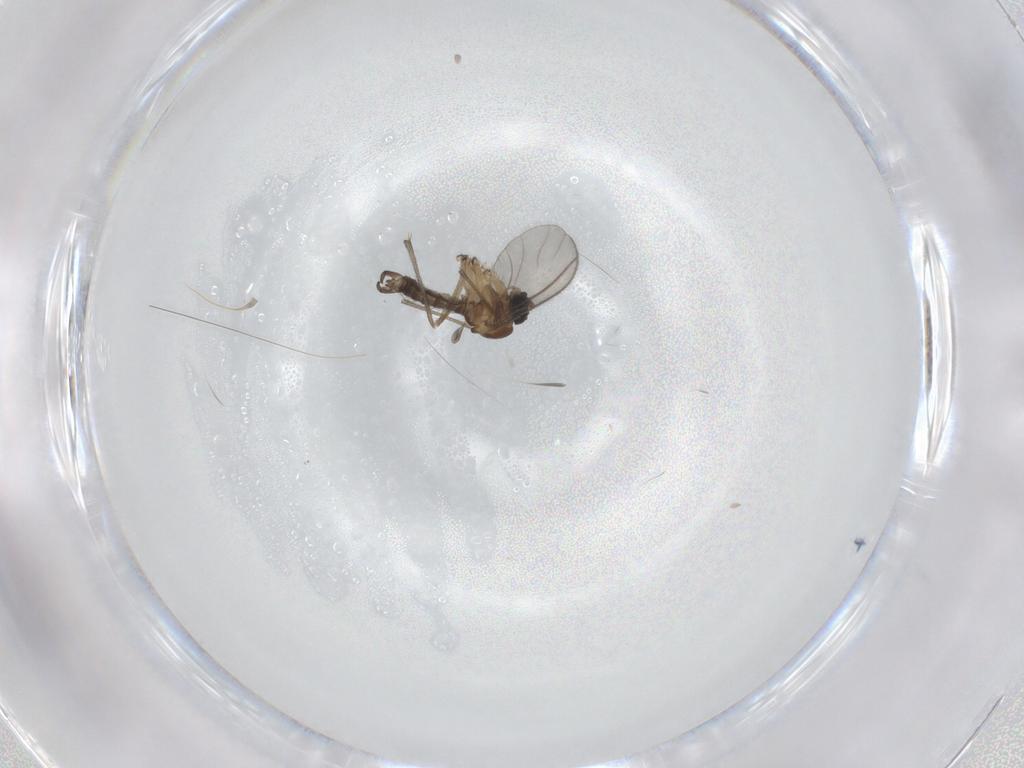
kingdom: Animalia
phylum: Arthropoda
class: Insecta
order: Diptera
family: Sciaridae
